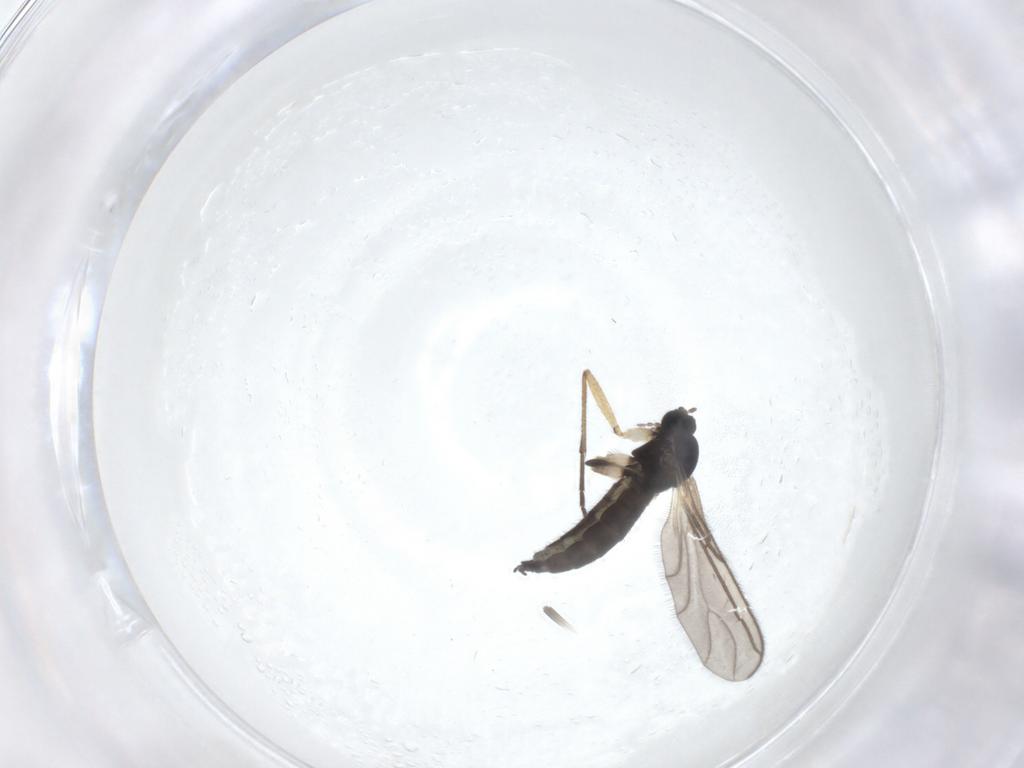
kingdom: Animalia
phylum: Arthropoda
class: Insecta
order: Diptera
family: Sciaridae
